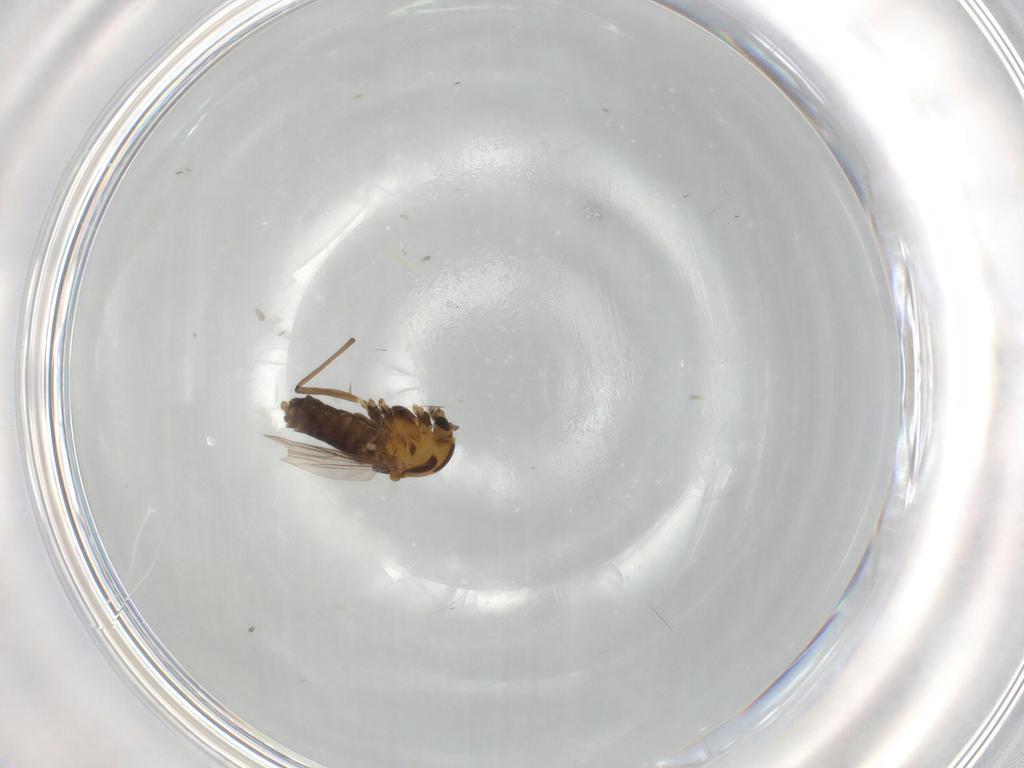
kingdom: Animalia
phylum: Arthropoda
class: Insecta
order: Diptera
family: Chironomidae
